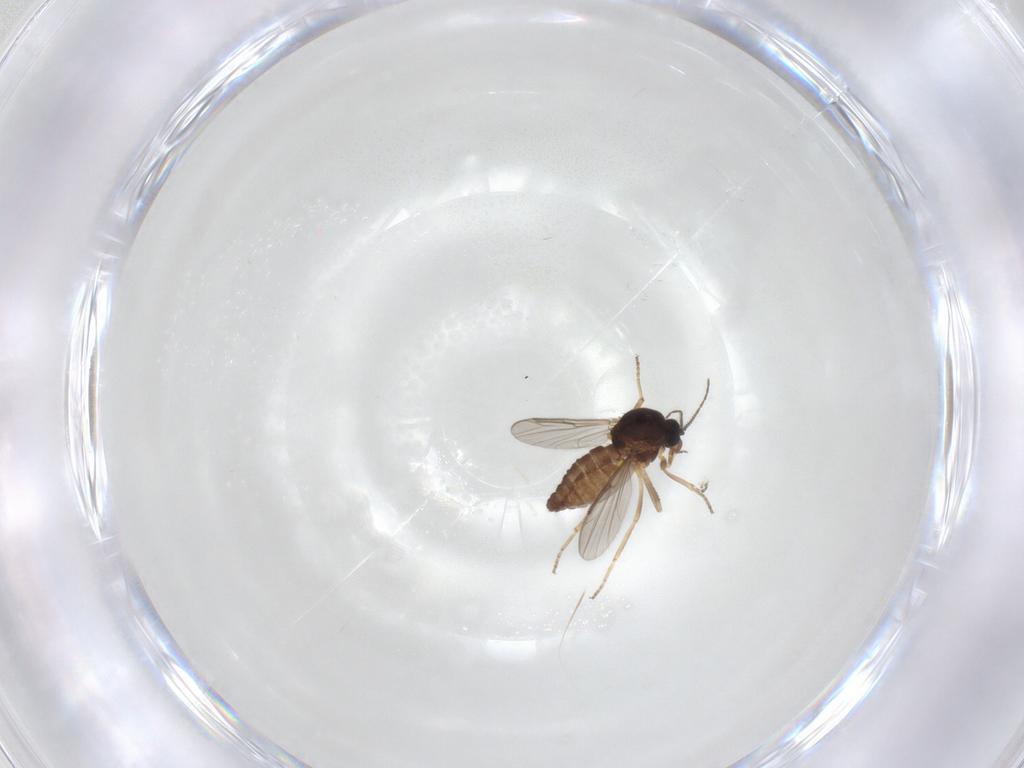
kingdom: Animalia
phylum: Arthropoda
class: Insecta
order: Diptera
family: Ceratopogonidae
